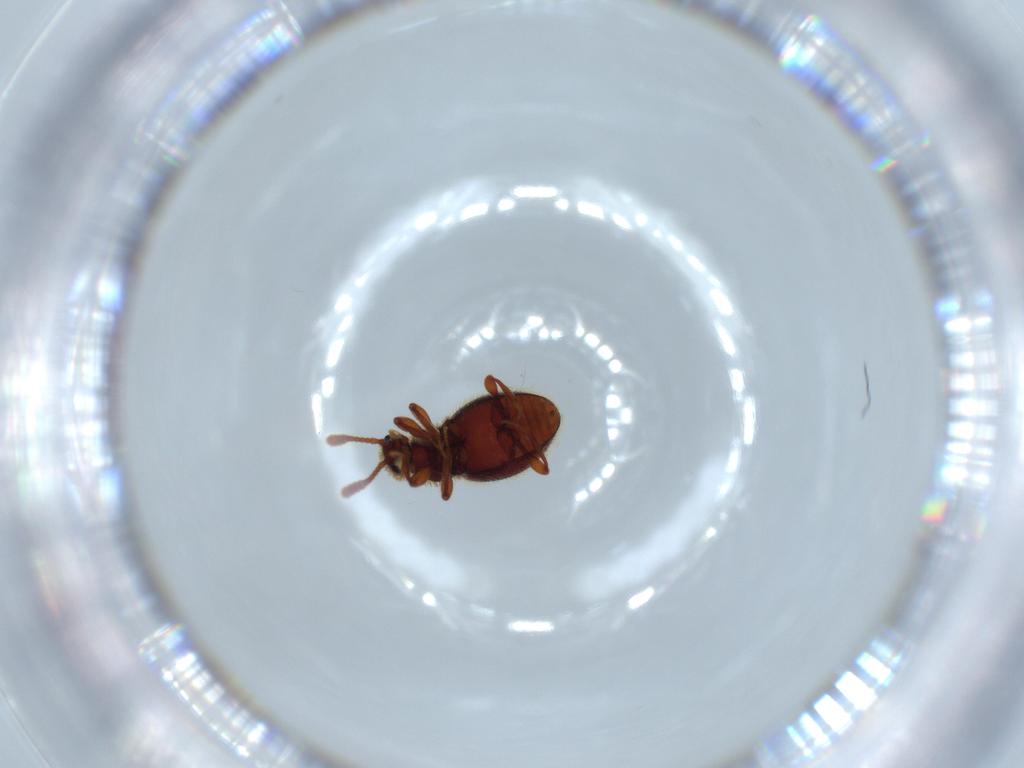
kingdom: Animalia
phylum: Arthropoda
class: Insecta
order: Coleoptera
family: Staphylinidae
